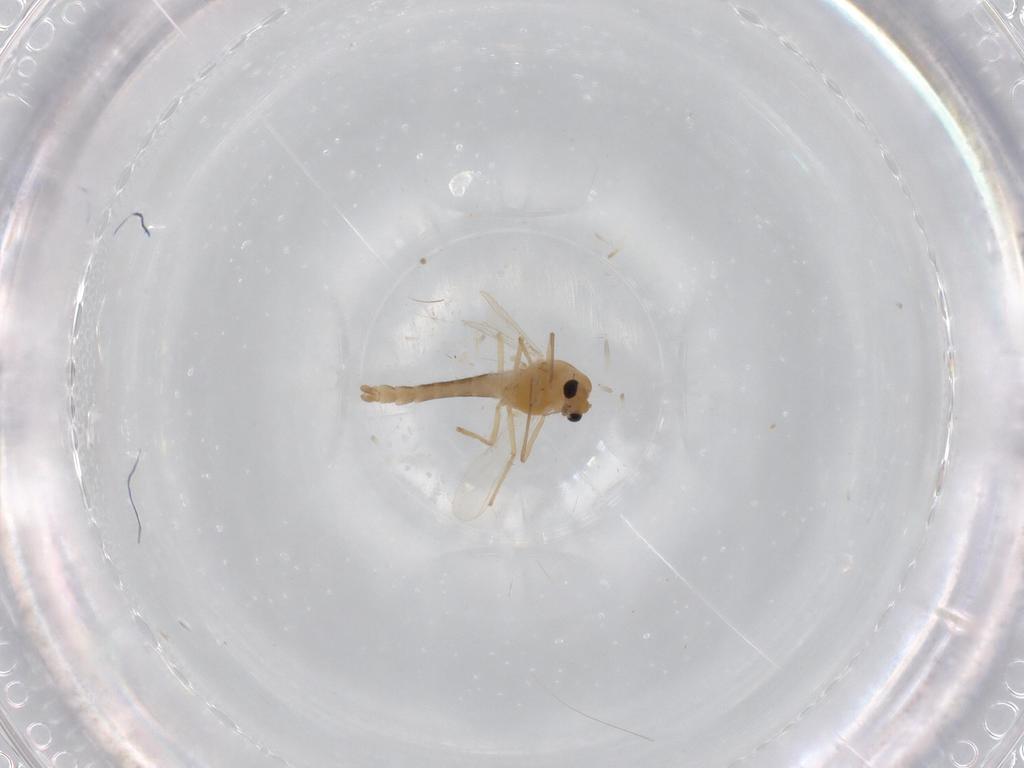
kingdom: Animalia
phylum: Arthropoda
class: Insecta
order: Diptera
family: Chironomidae
